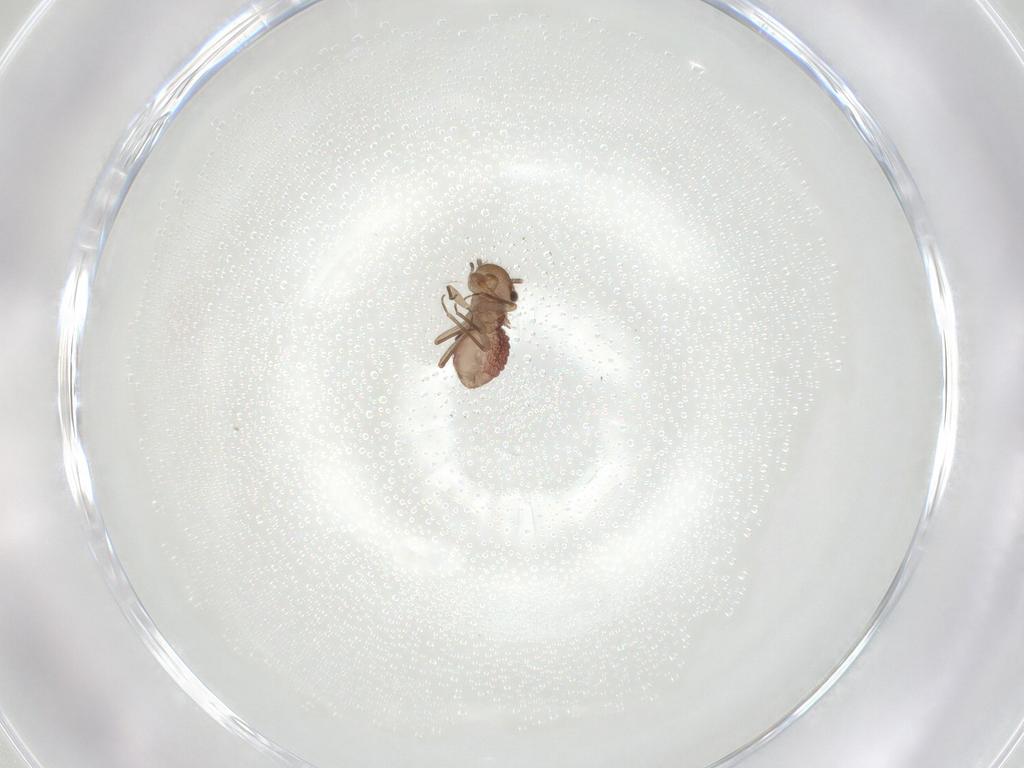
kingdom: Animalia
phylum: Arthropoda
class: Insecta
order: Psocodea
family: Ectopsocidae
